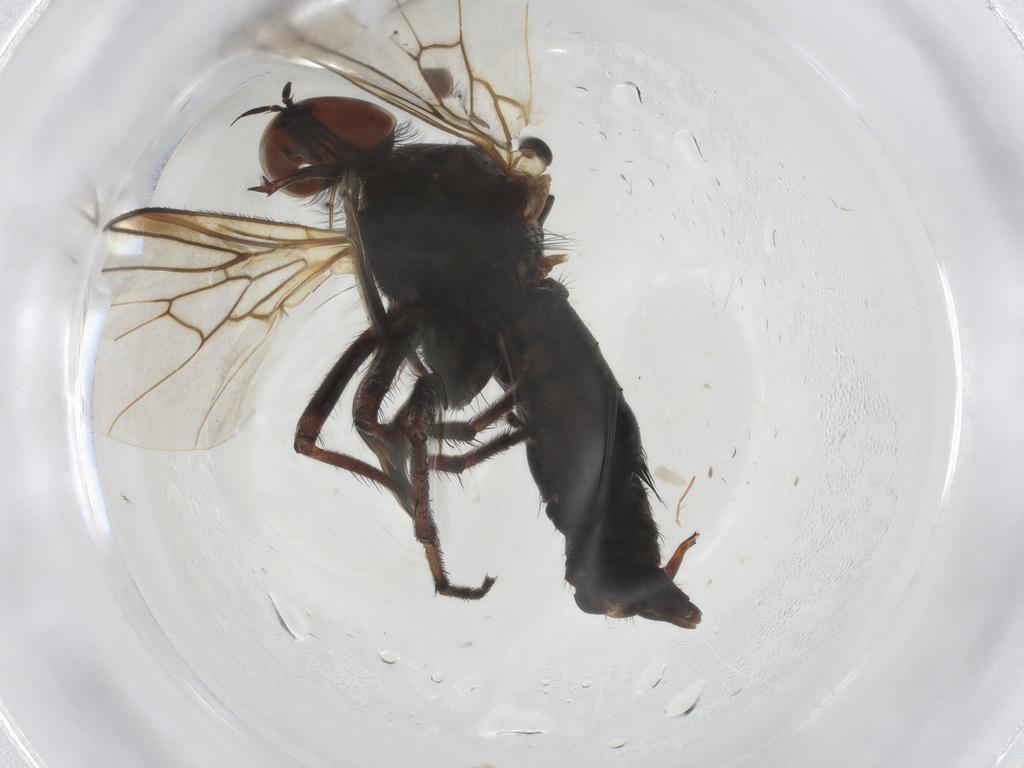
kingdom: Animalia
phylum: Arthropoda
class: Insecta
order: Diptera
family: Empididae
